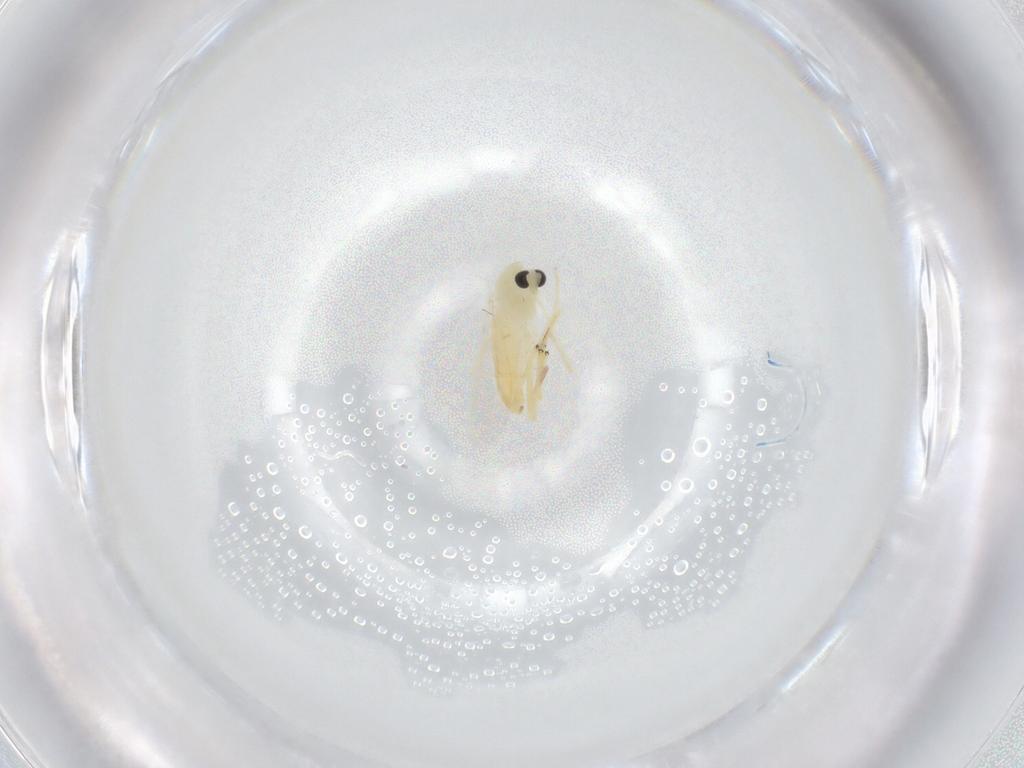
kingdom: Animalia
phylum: Arthropoda
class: Insecta
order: Diptera
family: Chironomidae
